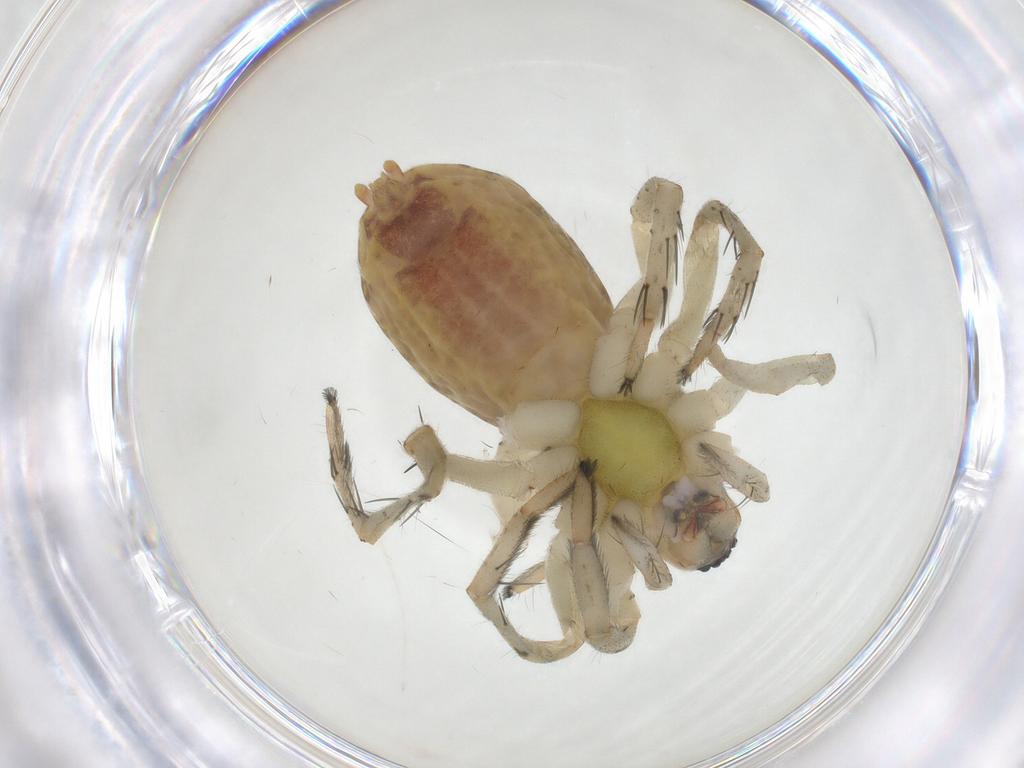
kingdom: Animalia
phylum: Arthropoda
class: Arachnida
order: Araneae
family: Anyphaenidae
